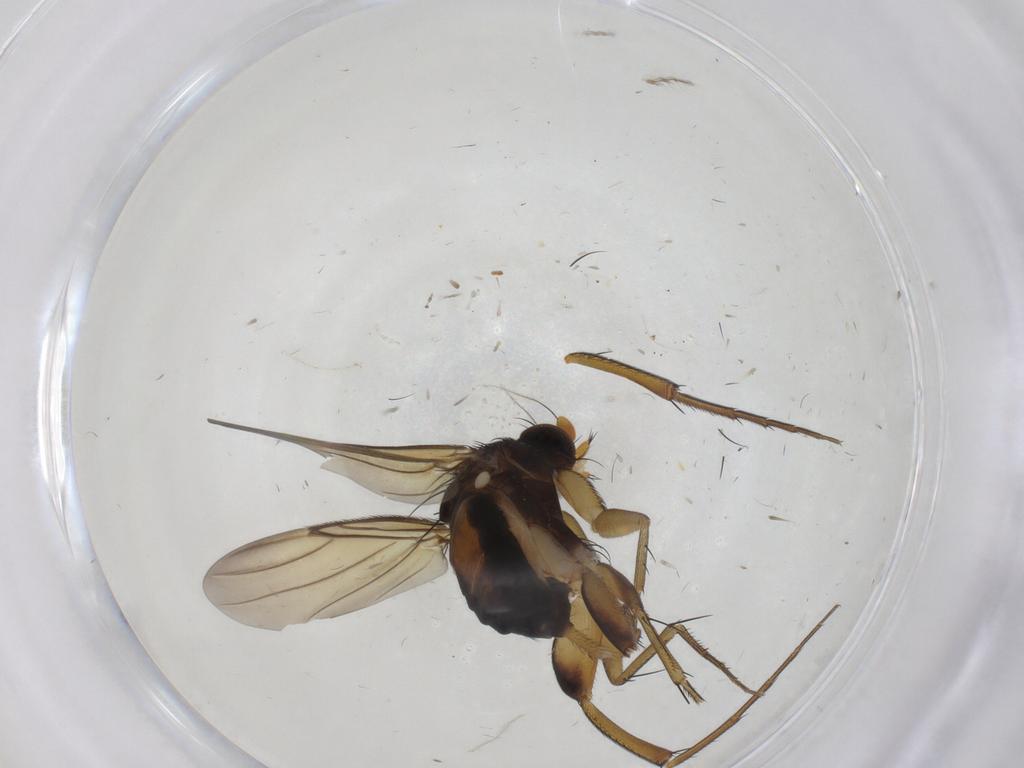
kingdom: Animalia
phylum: Arthropoda
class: Insecta
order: Diptera
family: Phoridae
